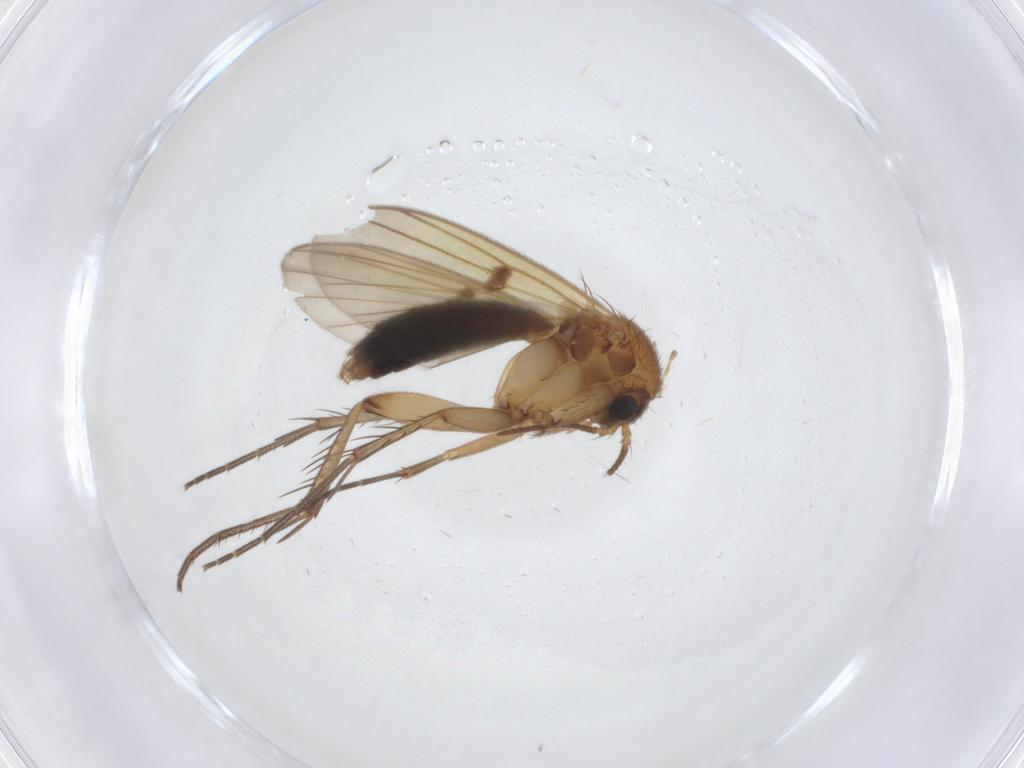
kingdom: Animalia
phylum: Arthropoda
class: Insecta
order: Diptera
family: Mycetophilidae
